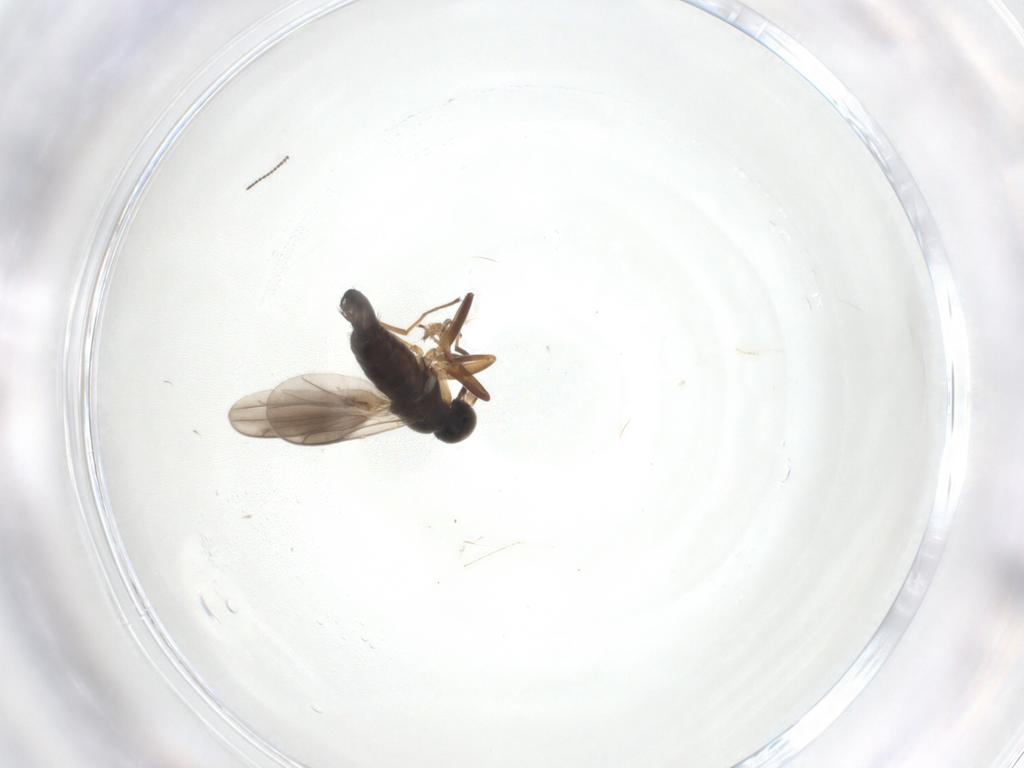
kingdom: Animalia
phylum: Arthropoda
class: Insecta
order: Diptera
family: Hybotidae
